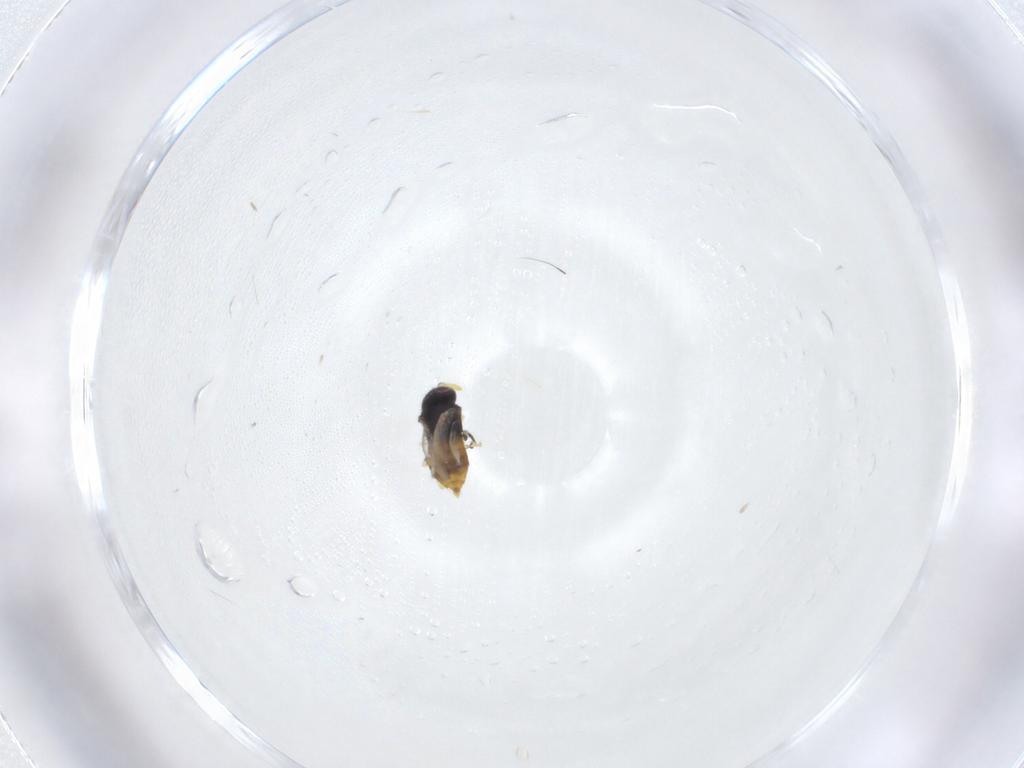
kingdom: Animalia
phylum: Arthropoda
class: Insecta
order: Hymenoptera
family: Aphelinidae
